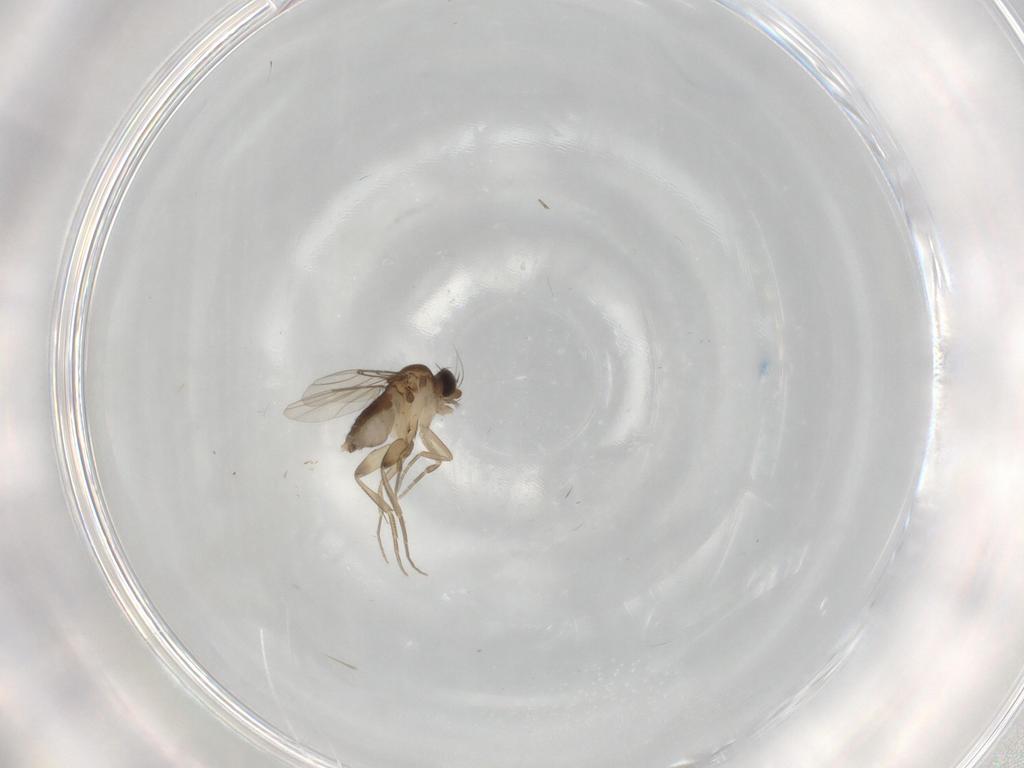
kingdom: Animalia
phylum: Arthropoda
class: Insecta
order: Diptera
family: Phoridae
